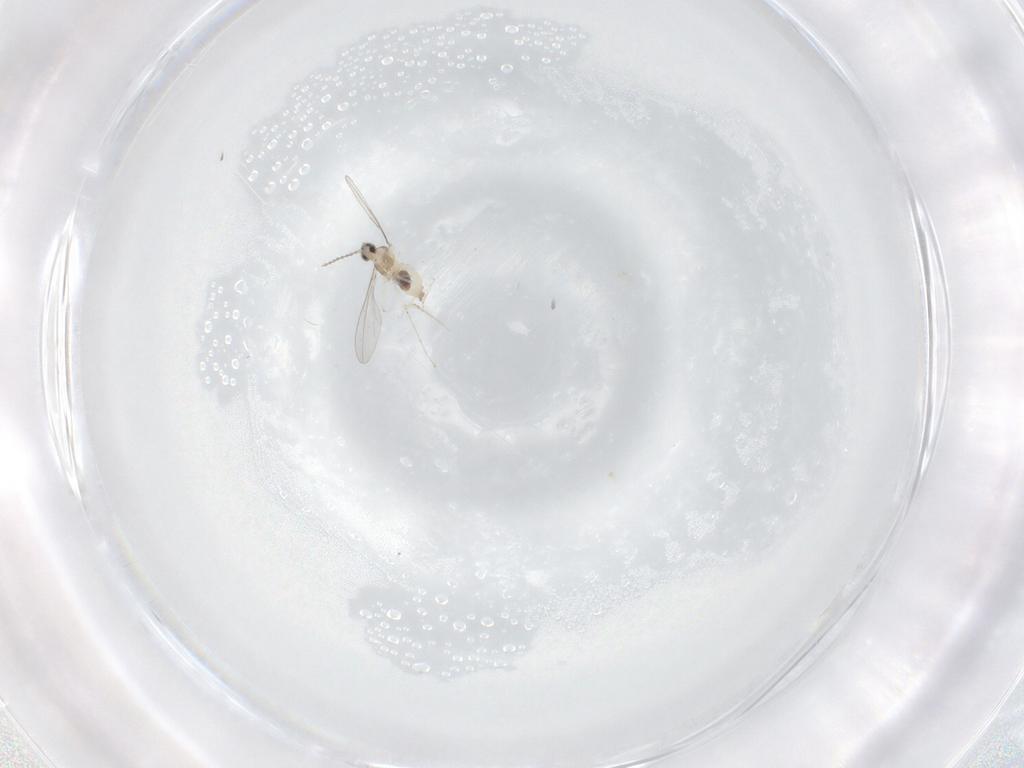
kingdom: Animalia
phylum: Arthropoda
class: Insecta
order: Diptera
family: Cecidomyiidae
